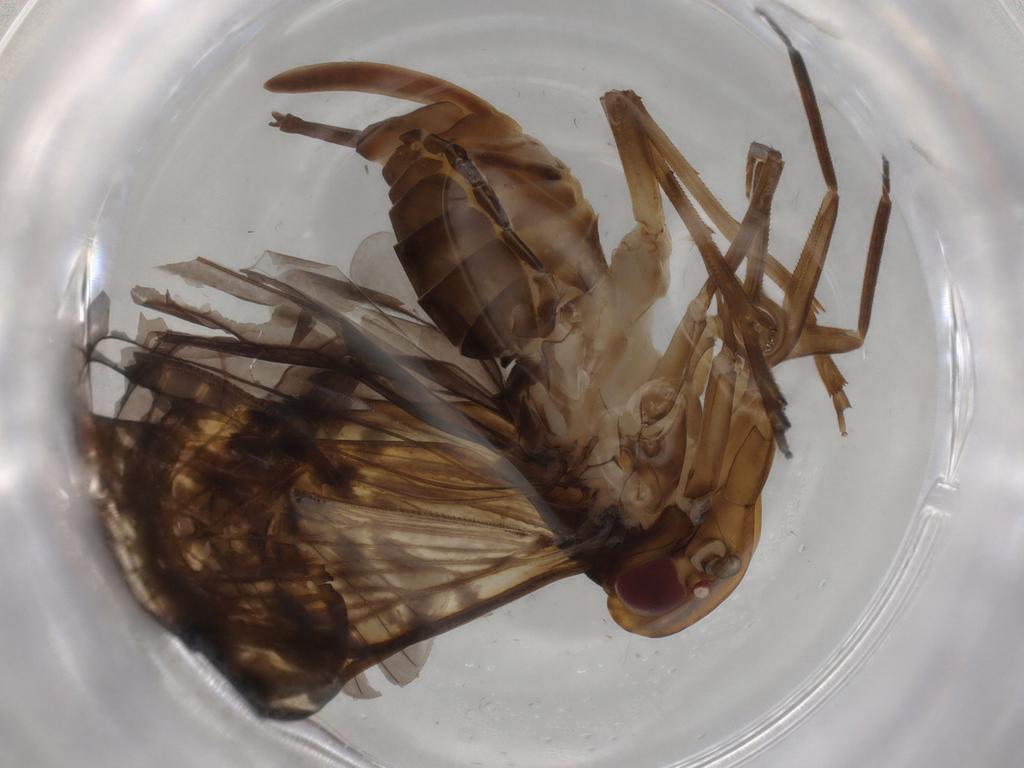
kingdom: Animalia
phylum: Arthropoda
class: Insecta
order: Hemiptera
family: Cixiidae
